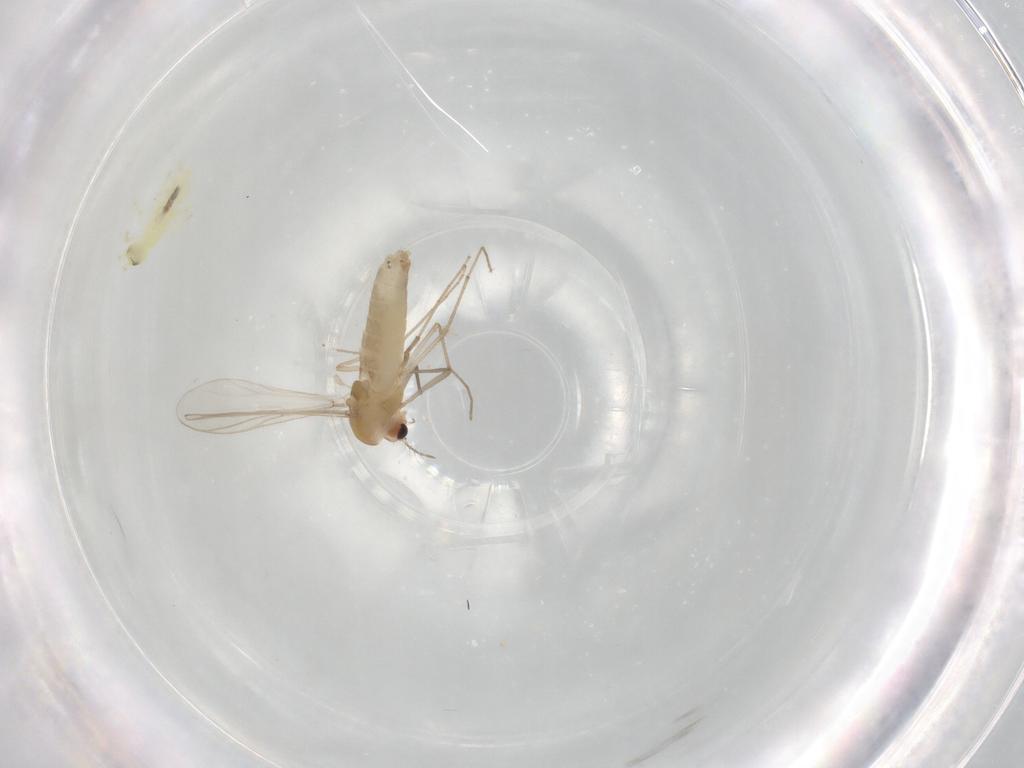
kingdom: Animalia
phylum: Arthropoda
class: Insecta
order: Diptera
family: Chironomidae
